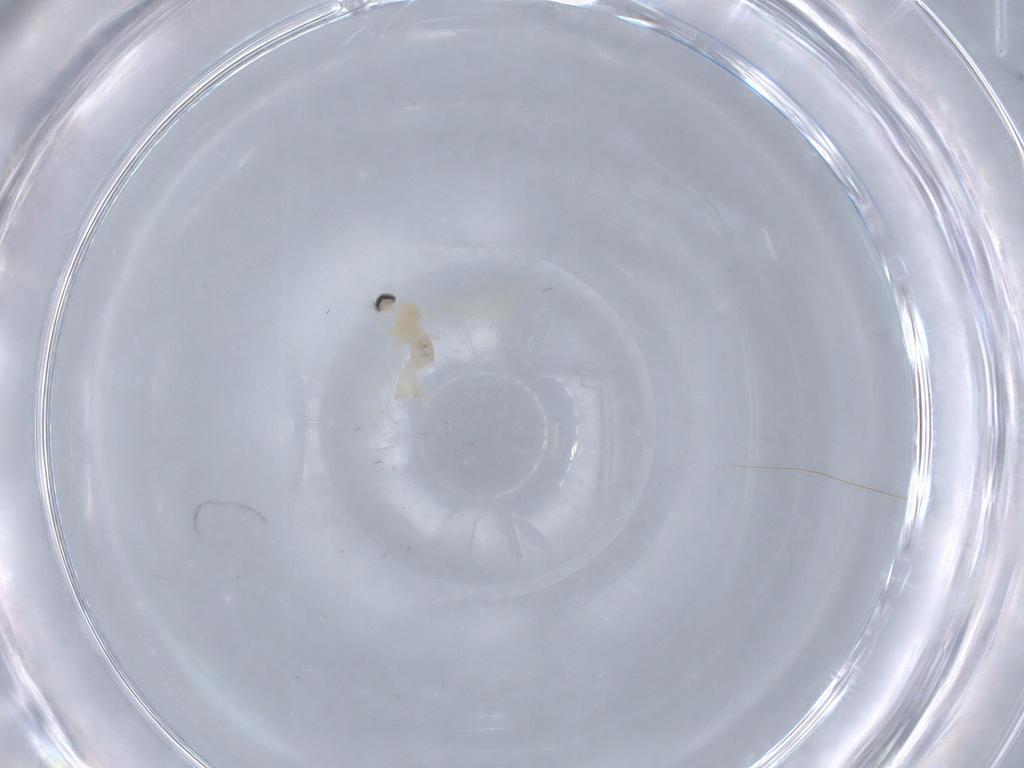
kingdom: Animalia
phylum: Arthropoda
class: Insecta
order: Diptera
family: Cecidomyiidae
